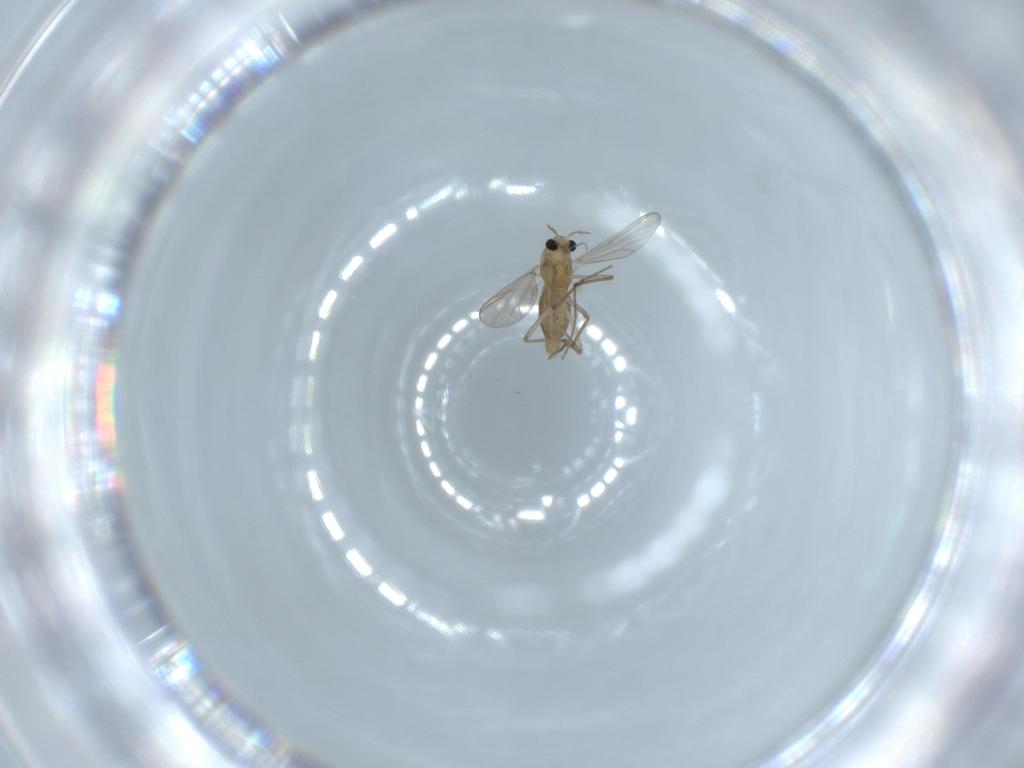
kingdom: Animalia
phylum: Arthropoda
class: Insecta
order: Diptera
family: Chironomidae
